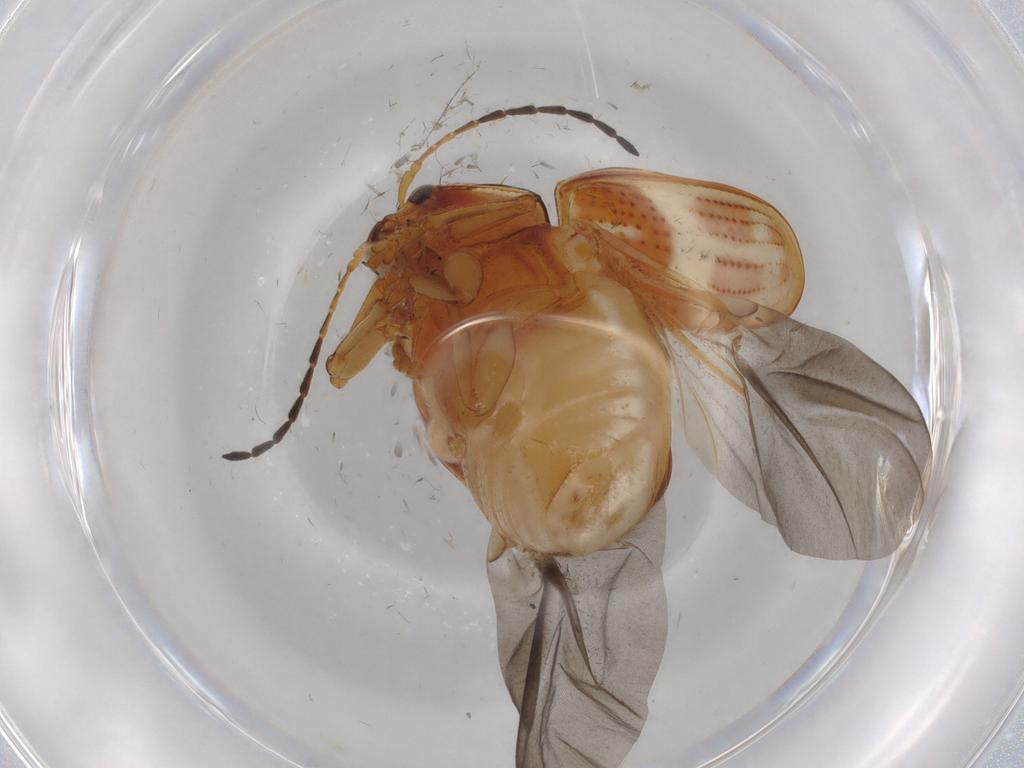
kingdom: Animalia
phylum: Arthropoda
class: Insecta
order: Coleoptera
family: Chrysomelidae
